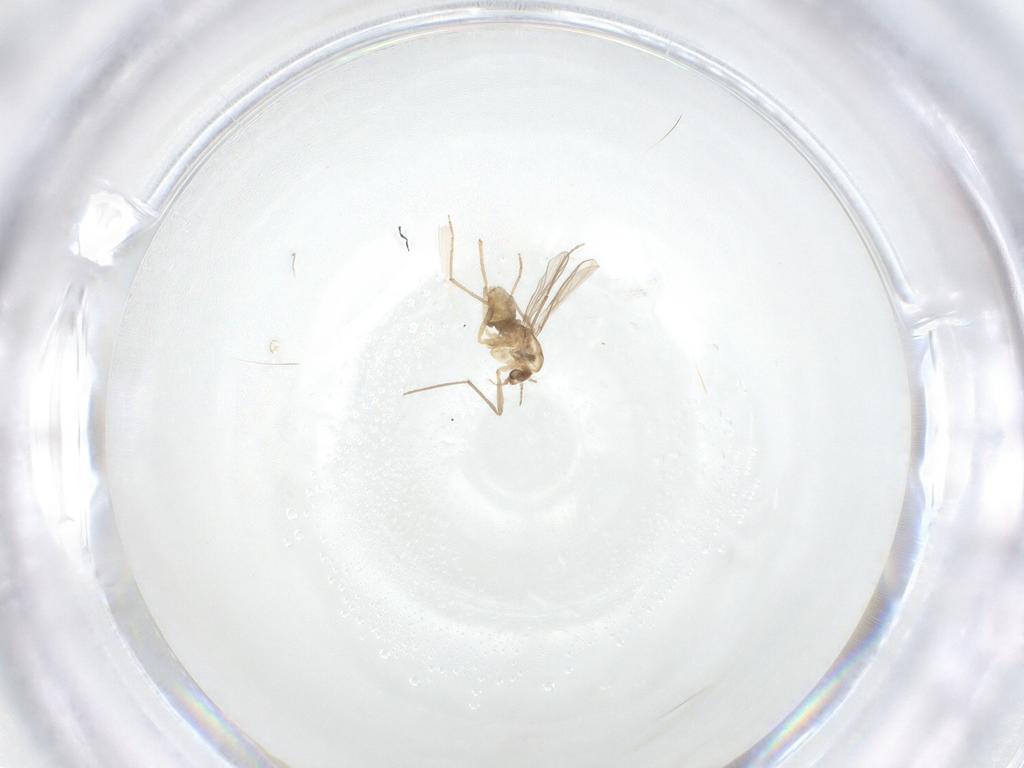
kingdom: Animalia
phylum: Arthropoda
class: Insecta
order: Diptera
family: Chironomidae
